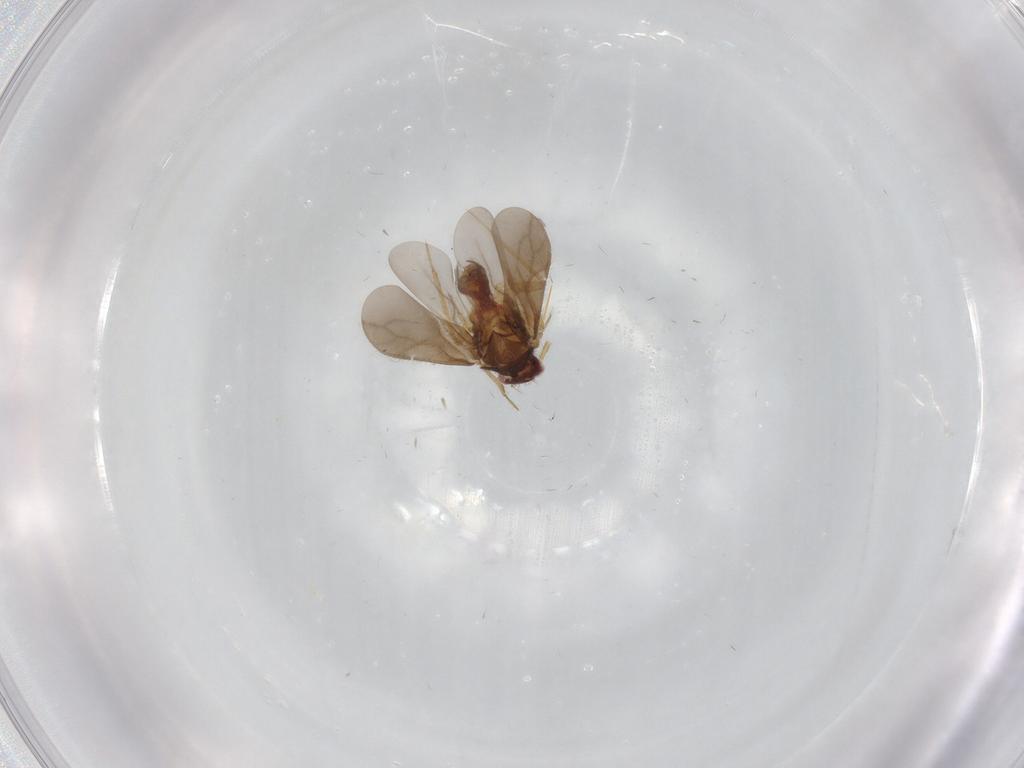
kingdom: Animalia
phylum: Arthropoda
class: Insecta
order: Hemiptera
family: Ceratocombidae
